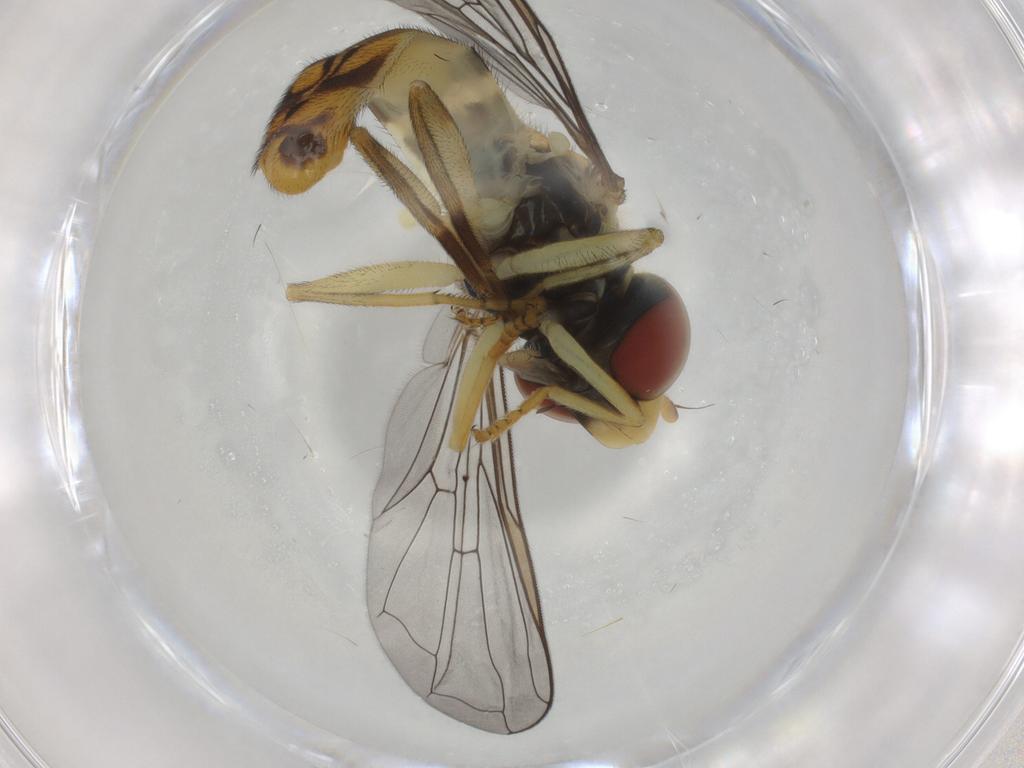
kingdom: Animalia
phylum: Arthropoda
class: Insecta
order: Diptera
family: Syrphidae
